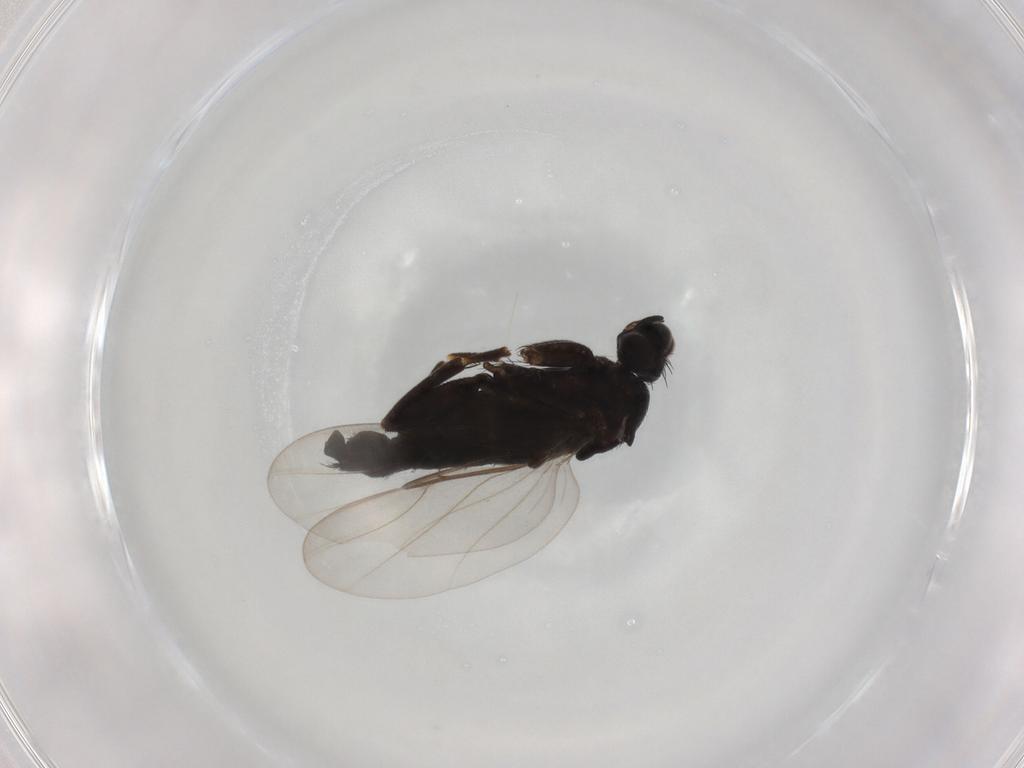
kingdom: Animalia
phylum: Arthropoda
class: Insecta
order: Diptera
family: Phoridae
